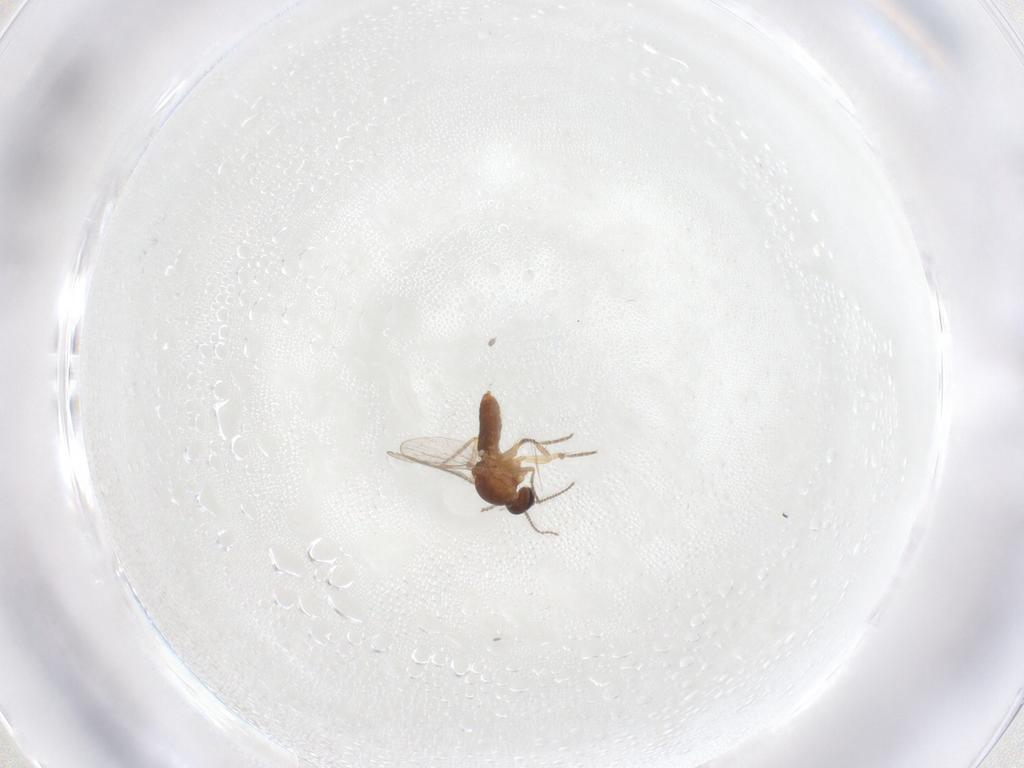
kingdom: Animalia
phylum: Arthropoda
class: Insecta
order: Diptera
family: Ceratopogonidae
